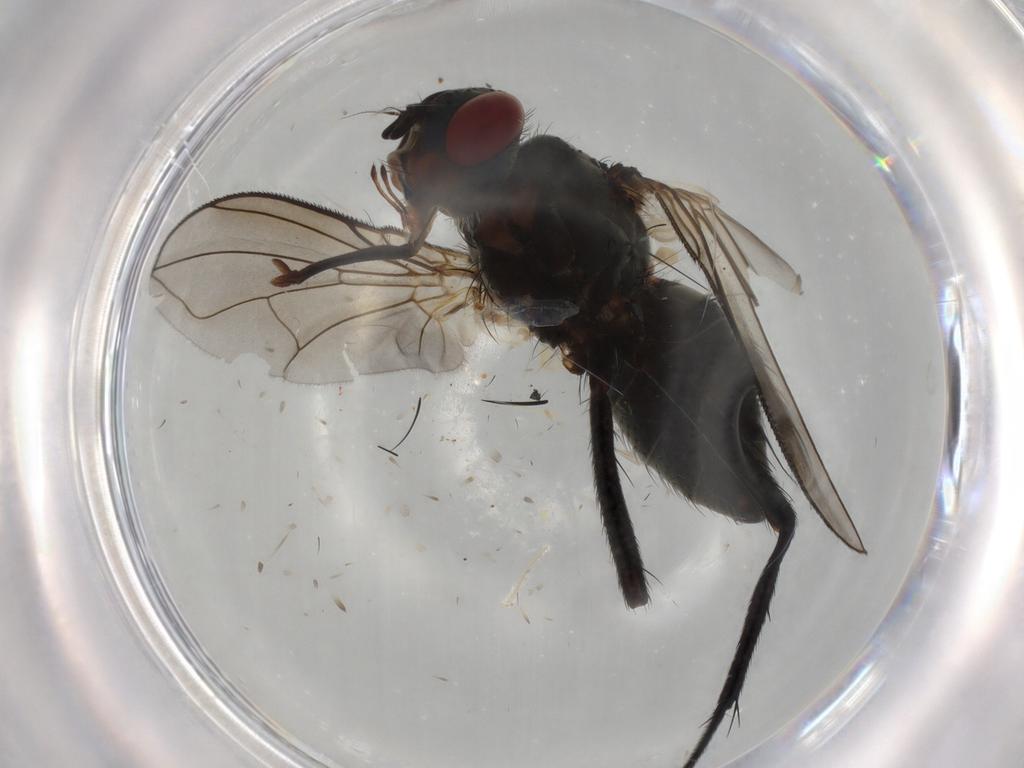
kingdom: Animalia
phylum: Arthropoda
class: Insecta
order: Diptera
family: Tachinidae
